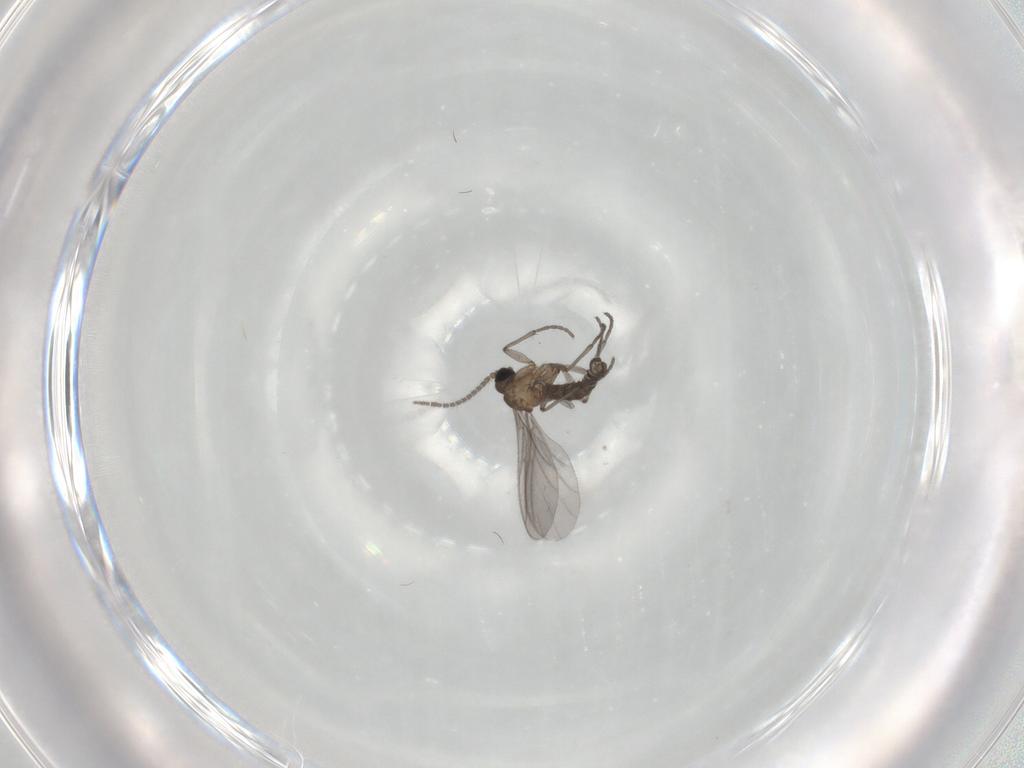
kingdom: Animalia
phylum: Arthropoda
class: Insecta
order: Diptera
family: Sciaridae
